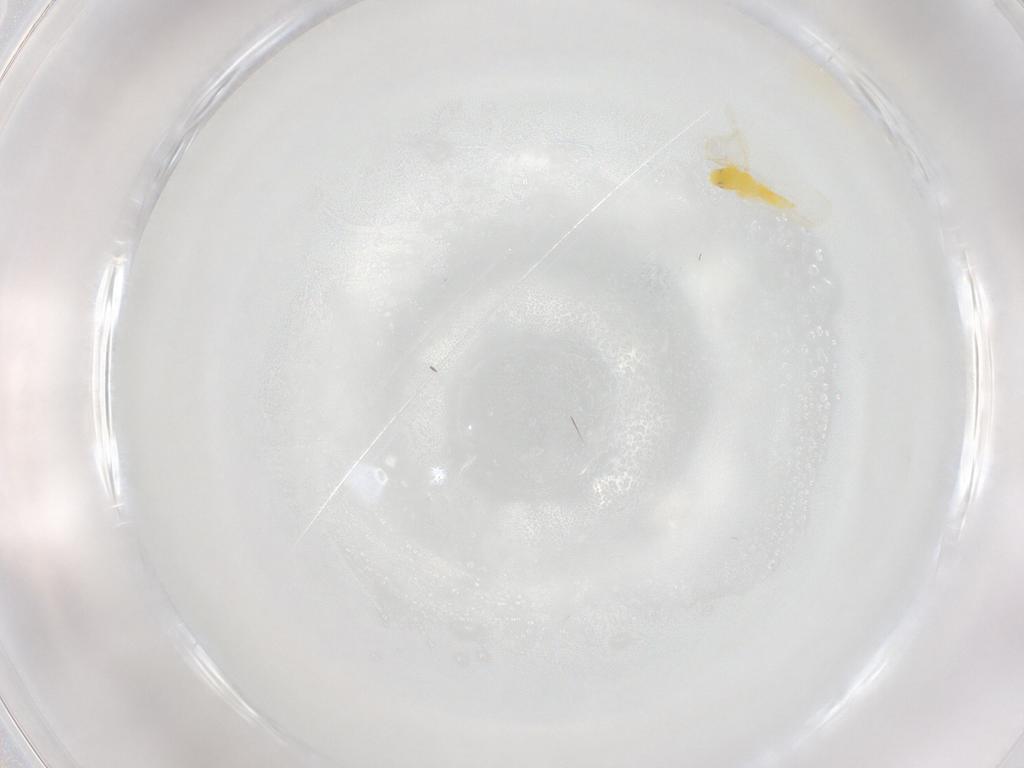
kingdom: Animalia
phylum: Arthropoda
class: Insecta
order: Hemiptera
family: Aleyrodidae
